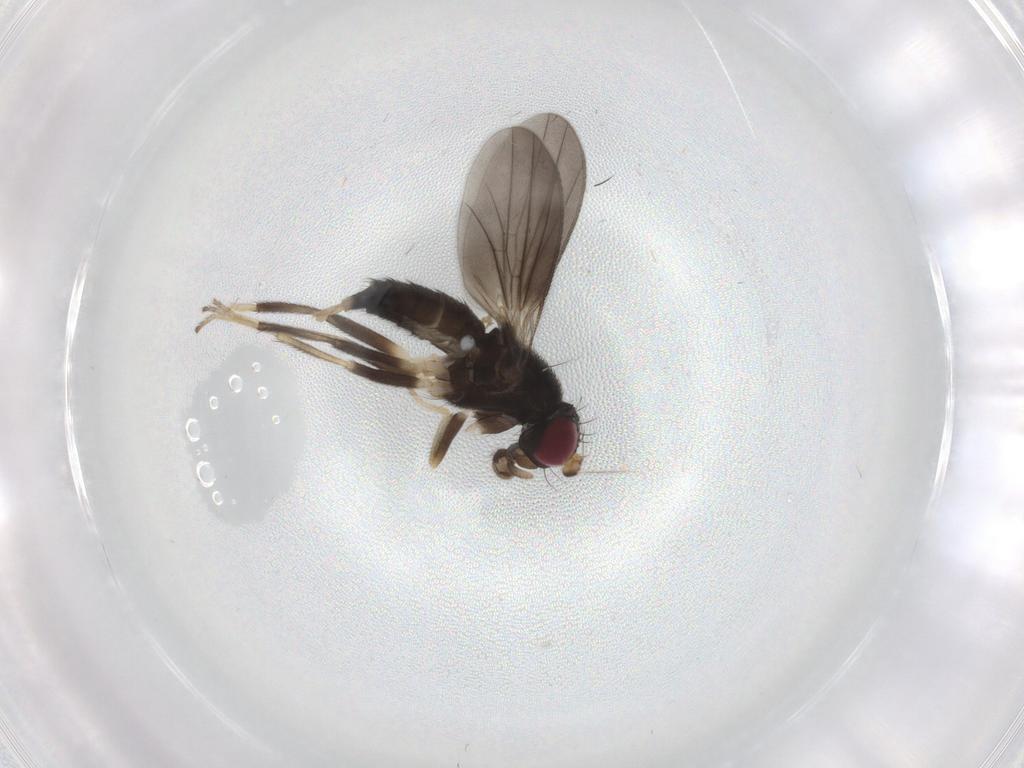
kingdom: Animalia
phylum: Arthropoda
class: Insecta
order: Diptera
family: Clusiidae
